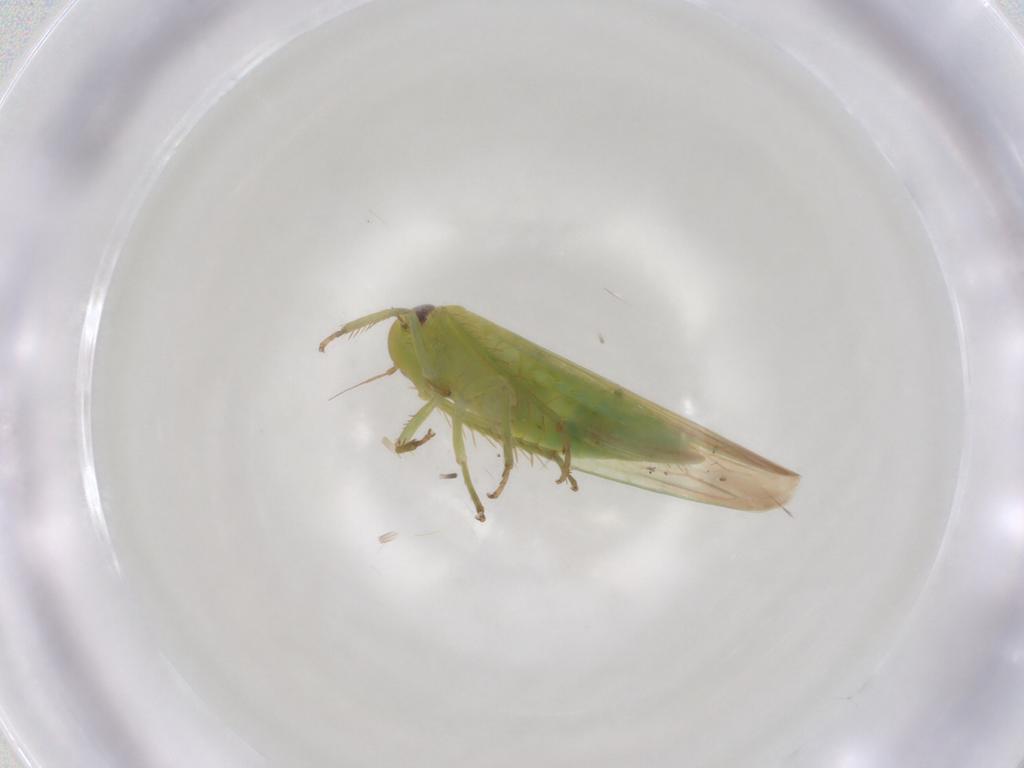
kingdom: Animalia
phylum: Arthropoda
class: Insecta
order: Hemiptera
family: Cicadellidae
